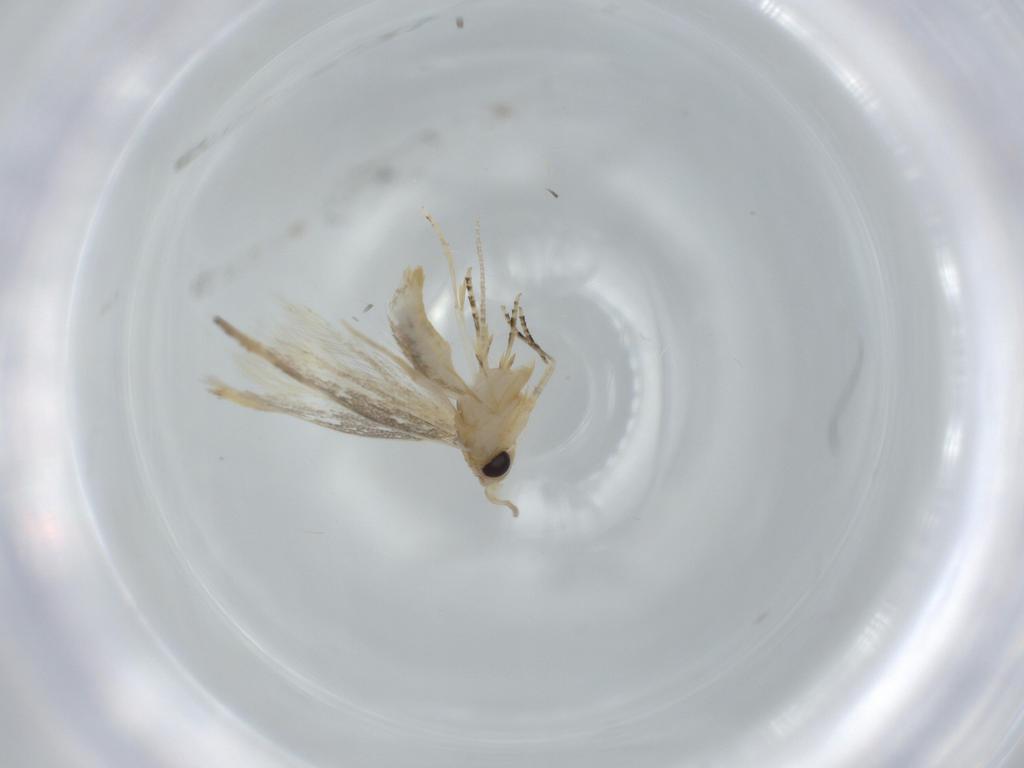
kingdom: Animalia
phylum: Arthropoda
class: Insecta
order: Lepidoptera
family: Bucculatricidae
